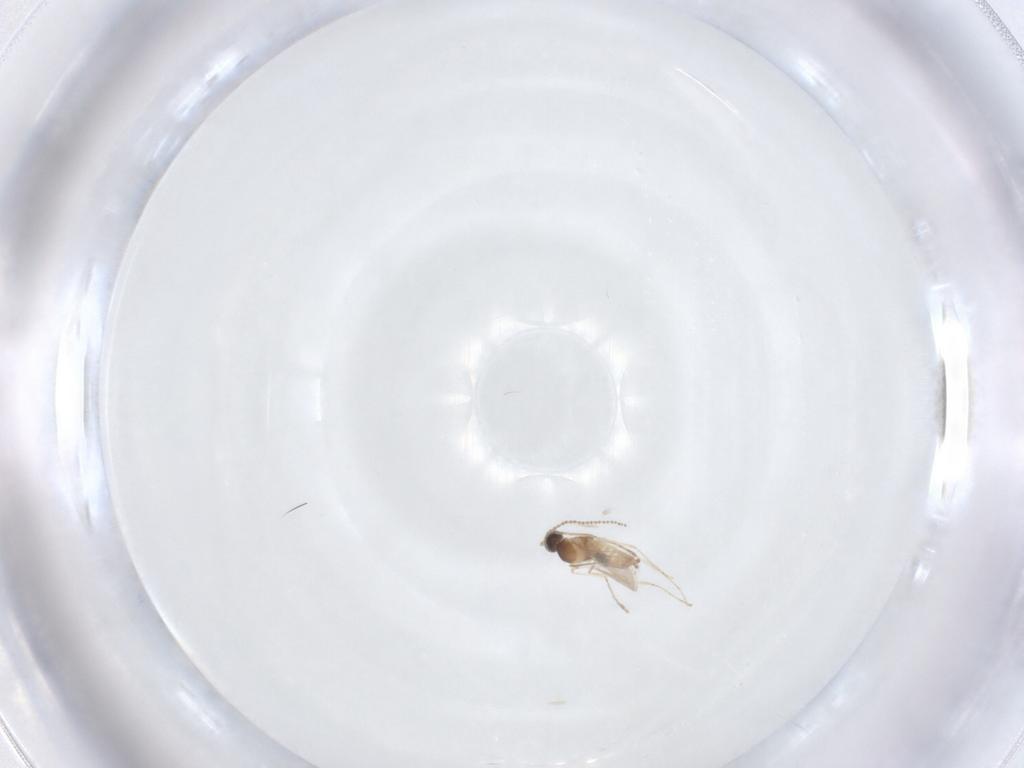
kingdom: Animalia
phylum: Arthropoda
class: Insecta
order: Diptera
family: Cecidomyiidae
